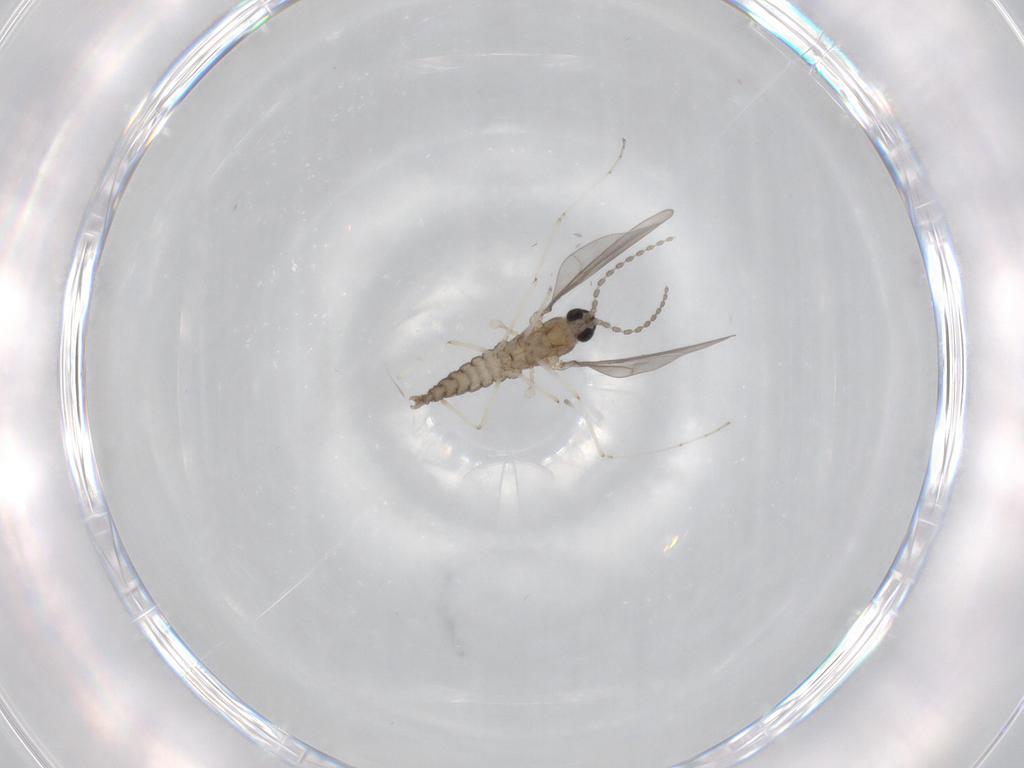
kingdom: Animalia
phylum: Arthropoda
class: Insecta
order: Diptera
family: Cecidomyiidae
